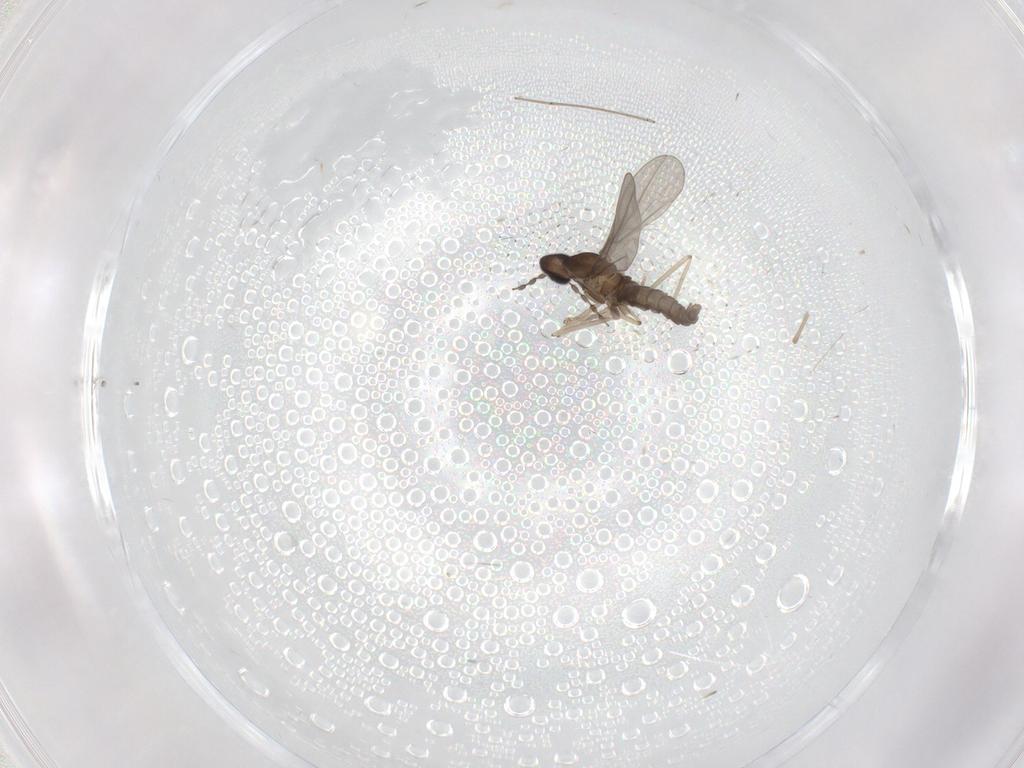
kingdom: Animalia
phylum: Arthropoda
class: Insecta
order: Diptera
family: Cecidomyiidae
